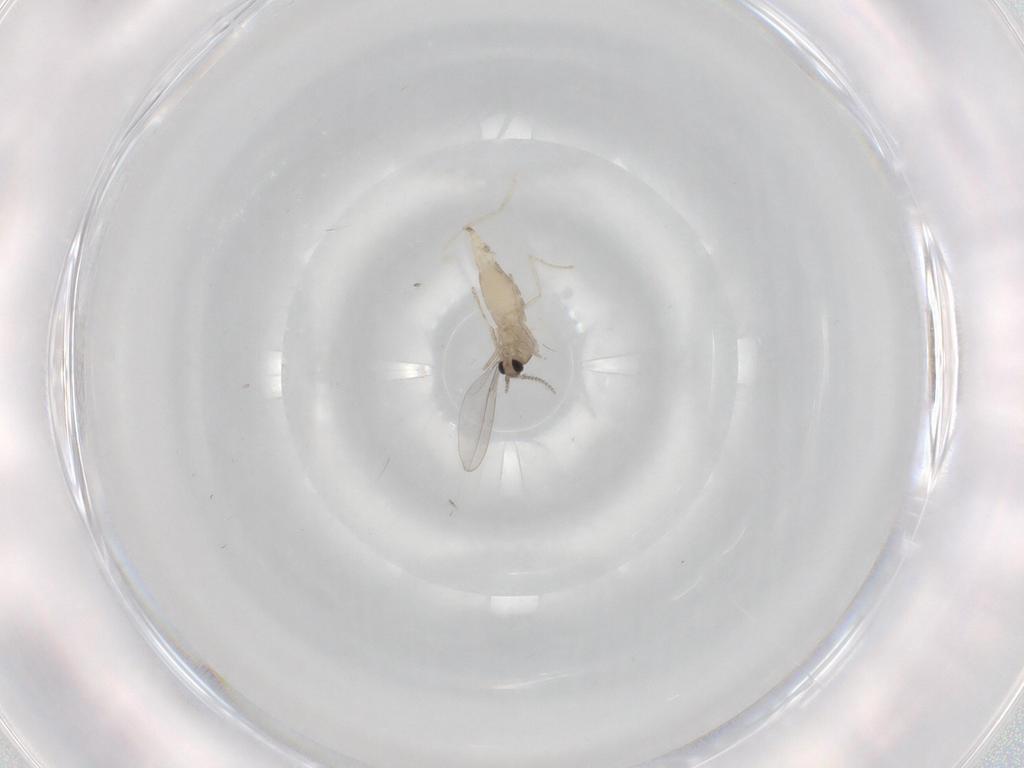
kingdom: Animalia
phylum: Arthropoda
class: Insecta
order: Diptera
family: Cecidomyiidae
